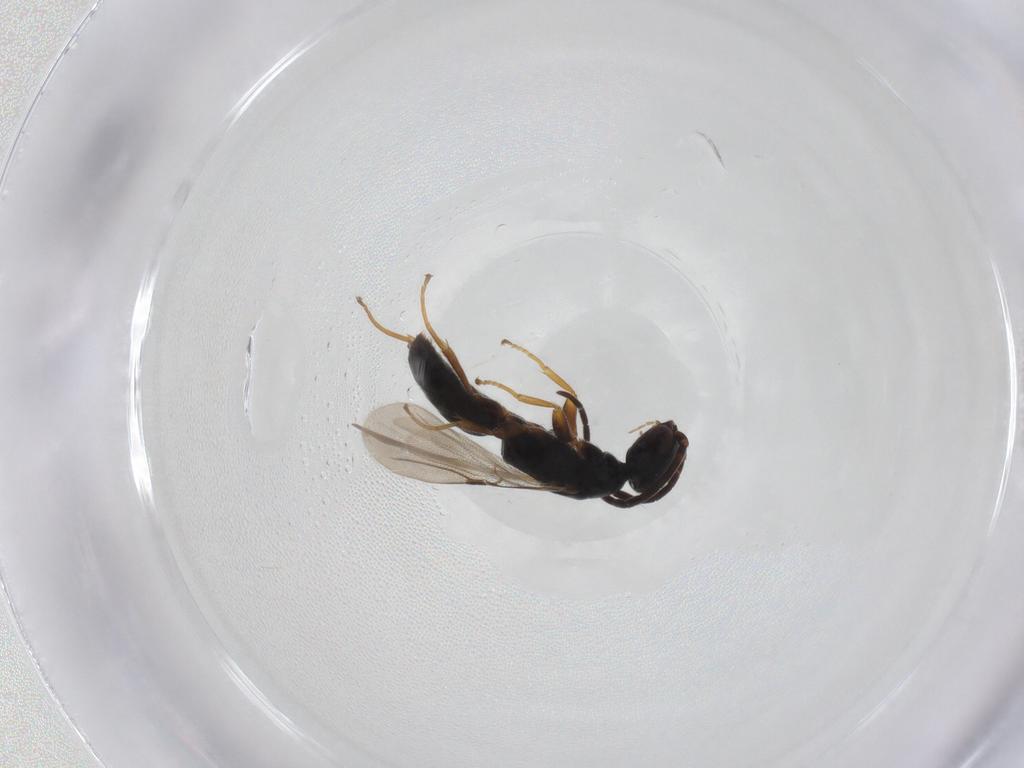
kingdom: Animalia
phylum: Arthropoda
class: Insecta
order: Hymenoptera
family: Bethylidae
